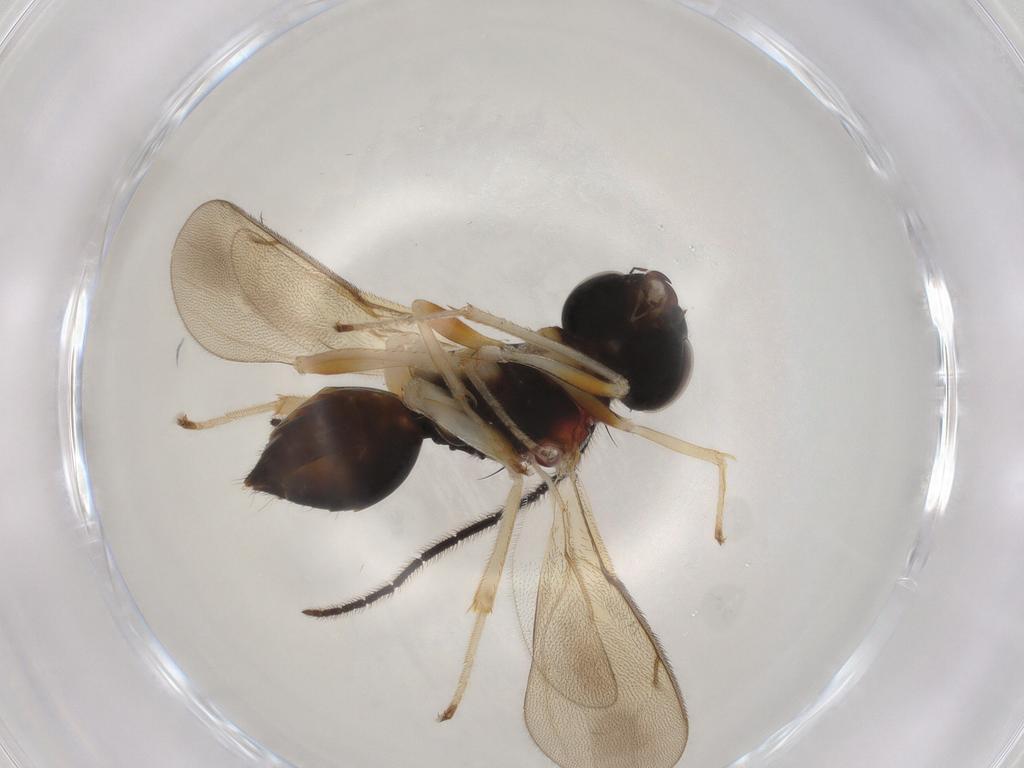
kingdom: Animalia
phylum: Arthropoda
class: Insecta
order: Hymenoptera
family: Diparidae
